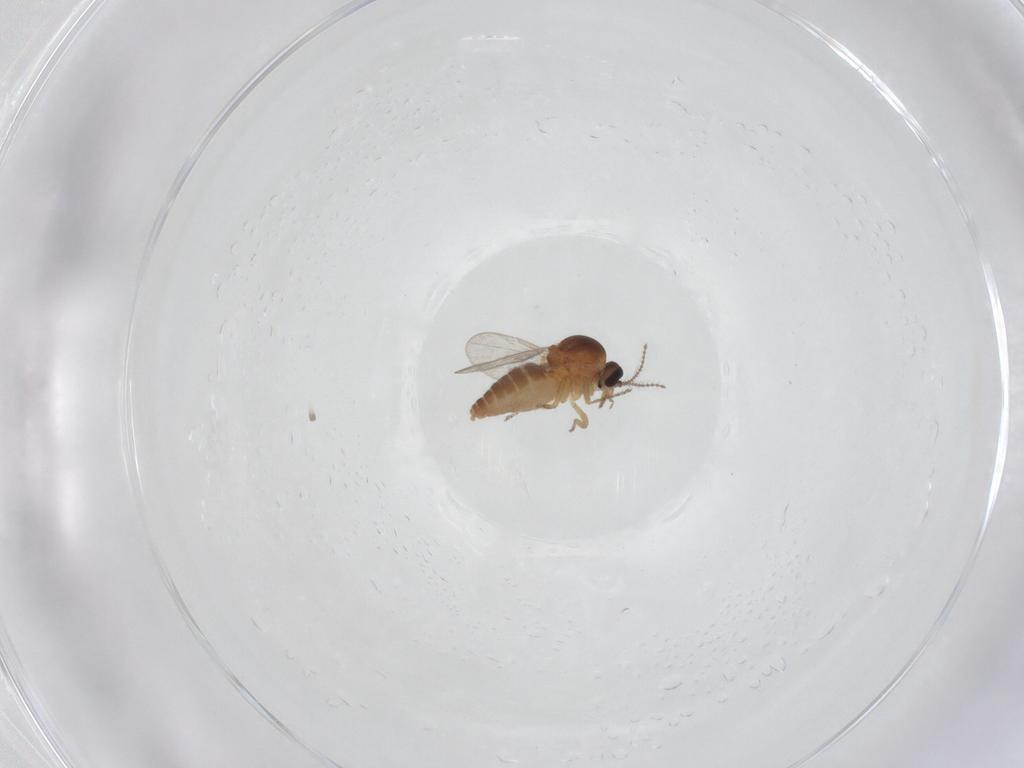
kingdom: Animalia
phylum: Arthropoda
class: Insecta
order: Diptera
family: Ceratopogonidae
